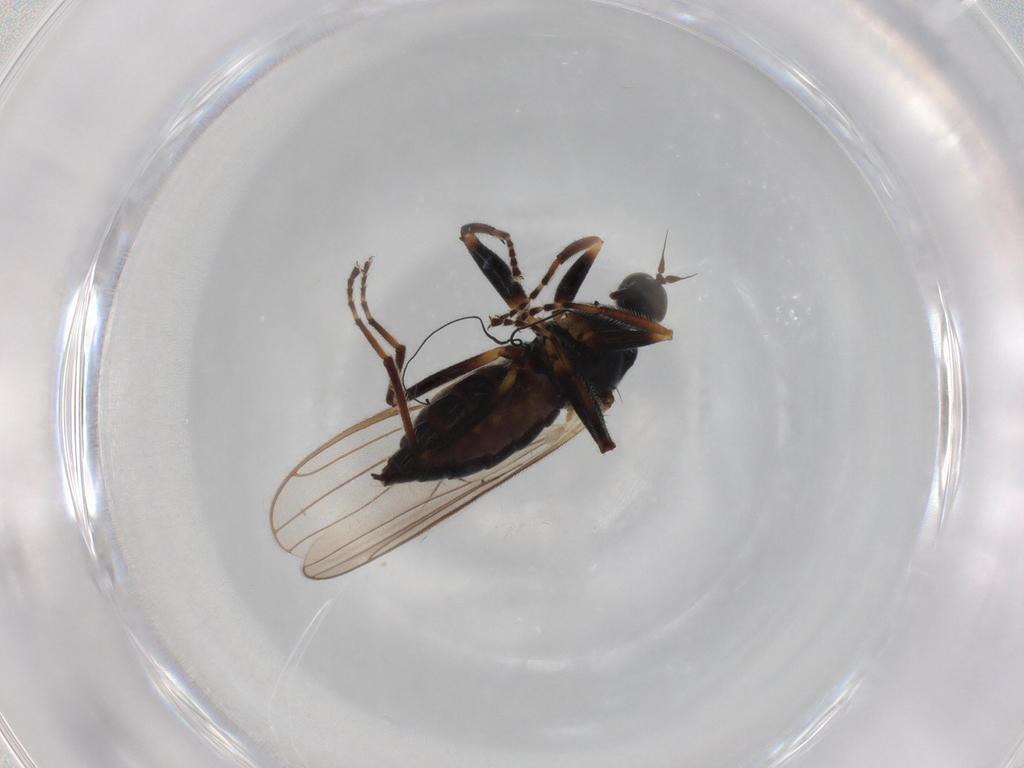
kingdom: Animalia
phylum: Arthropoda
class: Insecta
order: Diptera
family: Hybotidae
